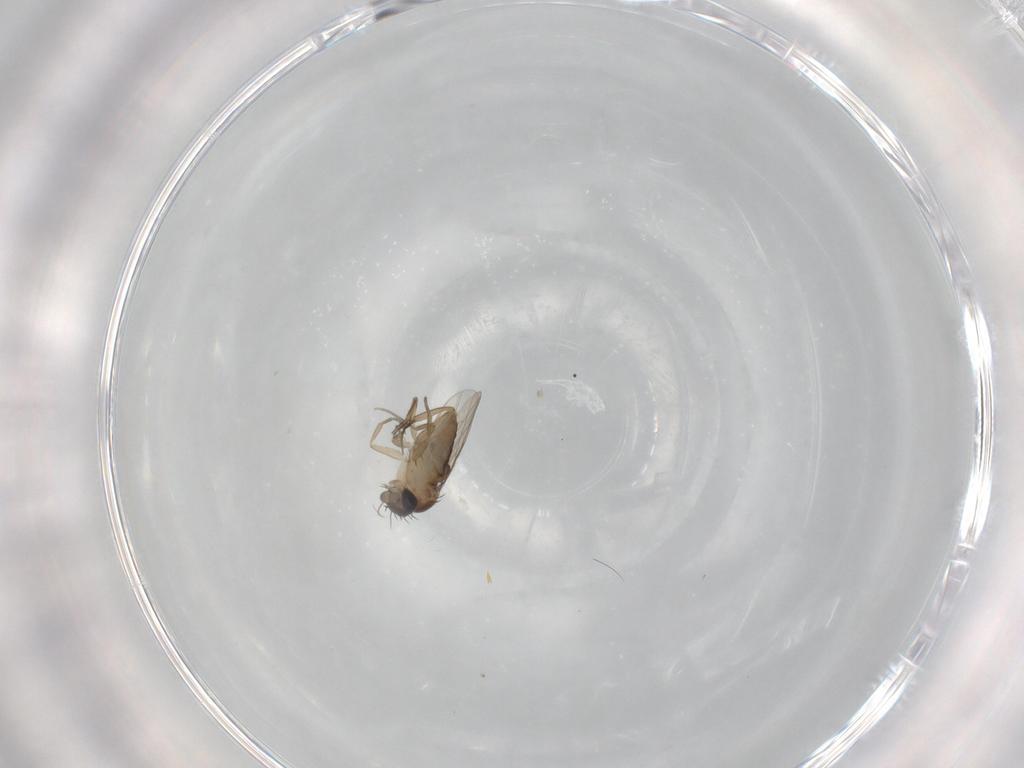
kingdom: Animalia
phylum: Arthropoda
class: Insecta
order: Diptera
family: Phoridae
